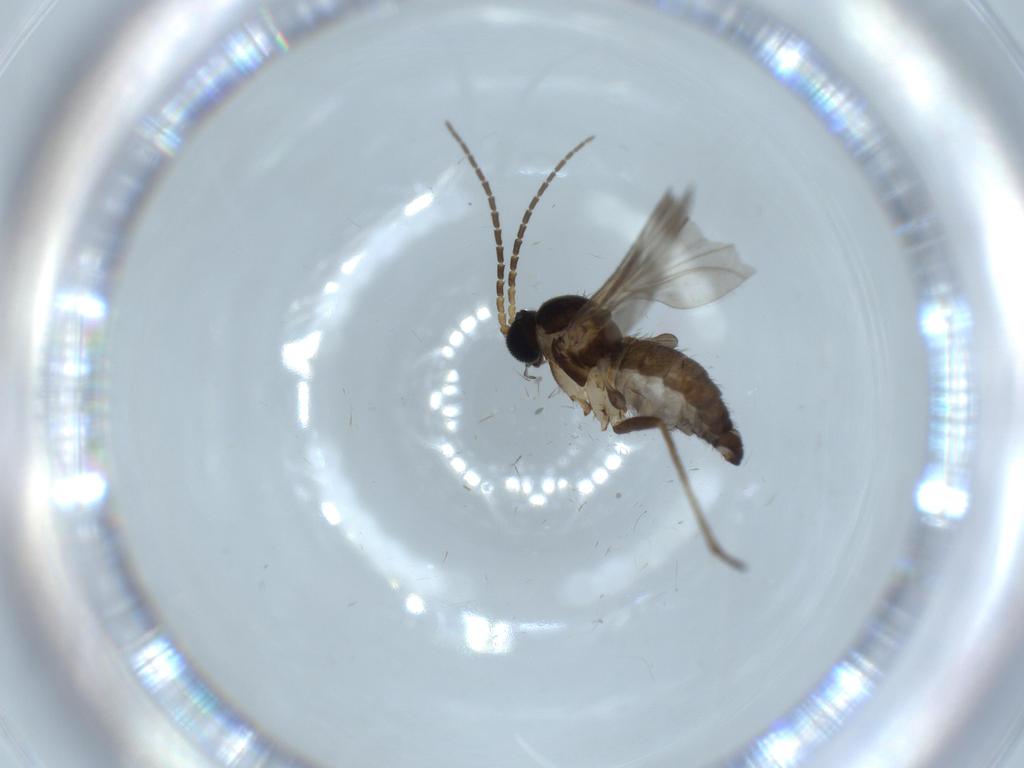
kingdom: Animalia
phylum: Arthropoda
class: Insecta
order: Diptera
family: Sciaridae
